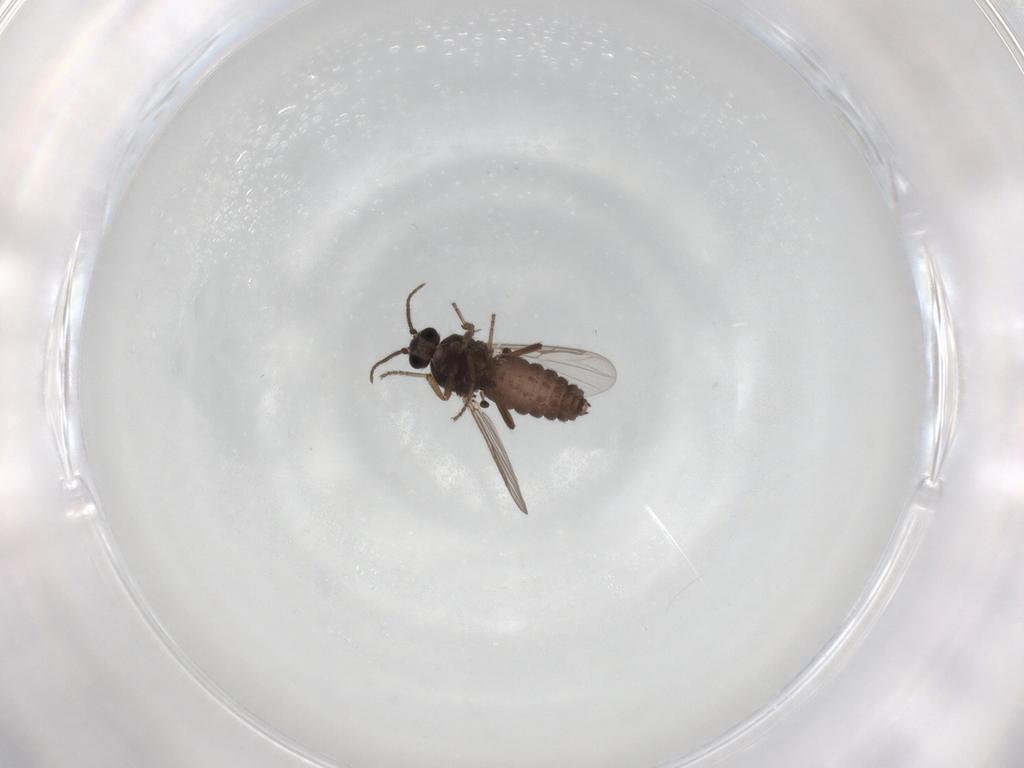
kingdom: Animalia
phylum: Arthropoda
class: Insecta
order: Diptera
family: Ceratopogonidae
